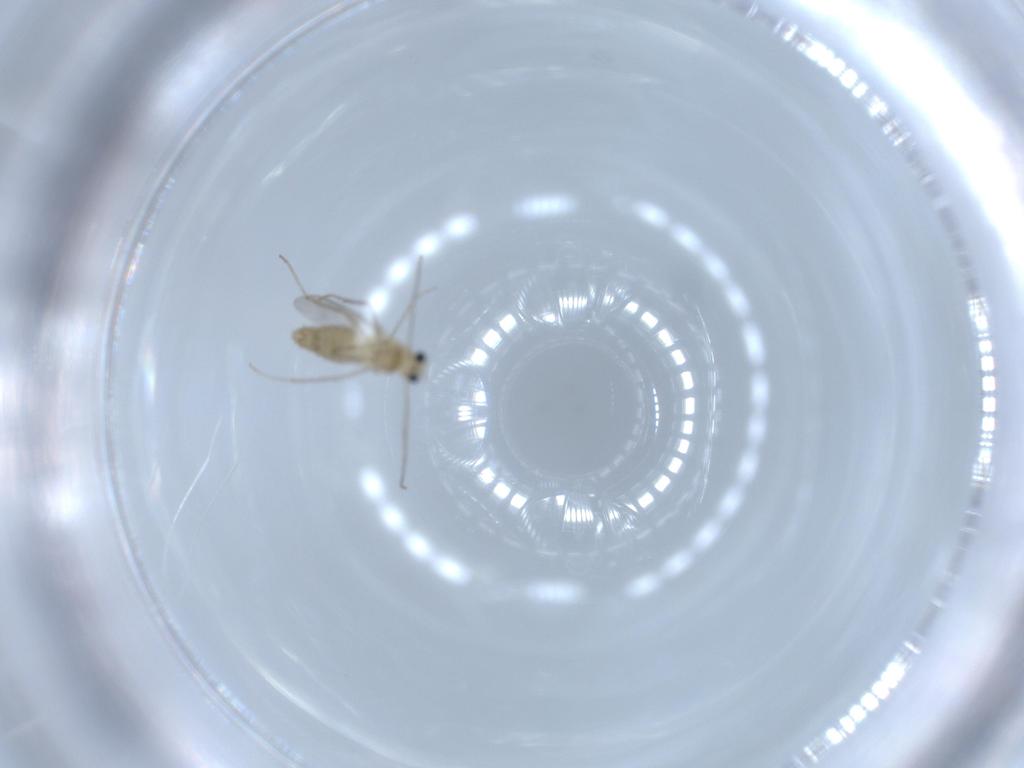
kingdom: Animalia
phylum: Arthropoda
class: Insecta
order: Diptera
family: Chironomidae
